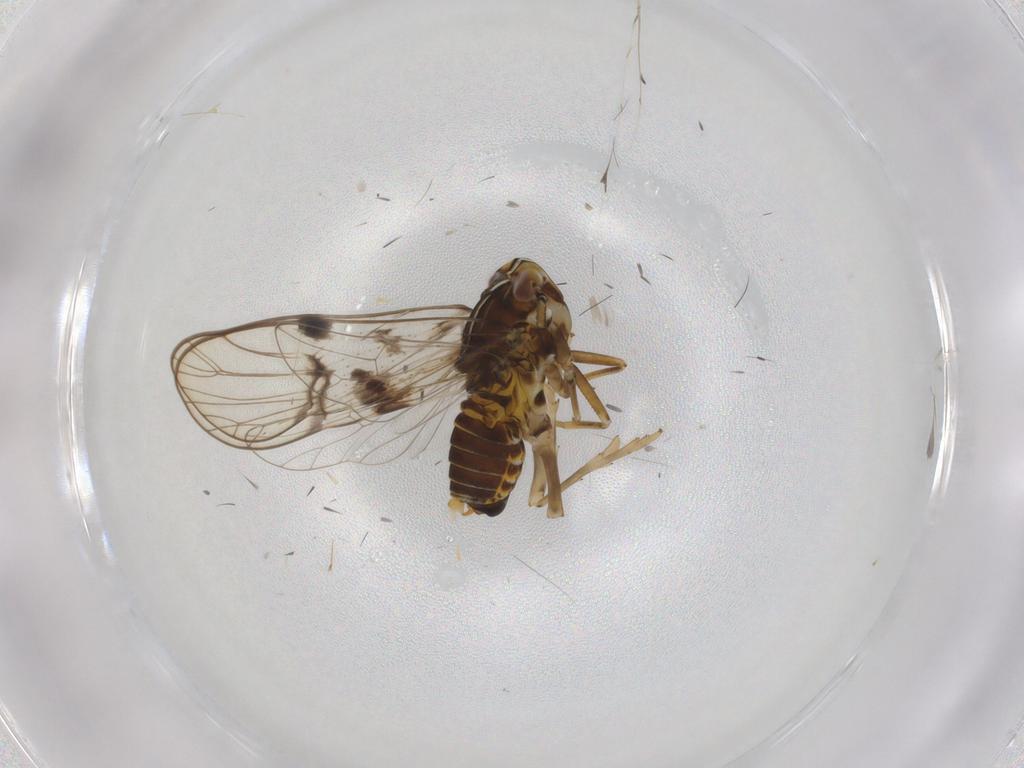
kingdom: Animalia
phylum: Arthropoda
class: Insecta
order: Hemiptera
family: Delphacidae
